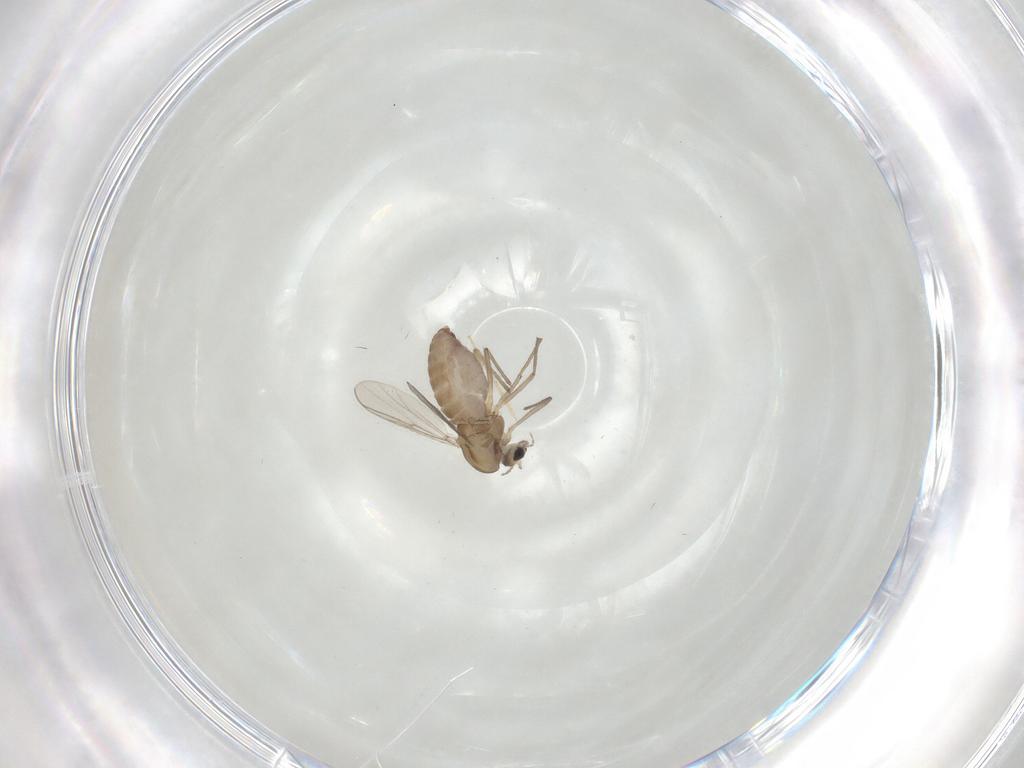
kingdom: Animalia
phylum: Arthropoda
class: Insecta
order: Diptera
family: Chironomidae
